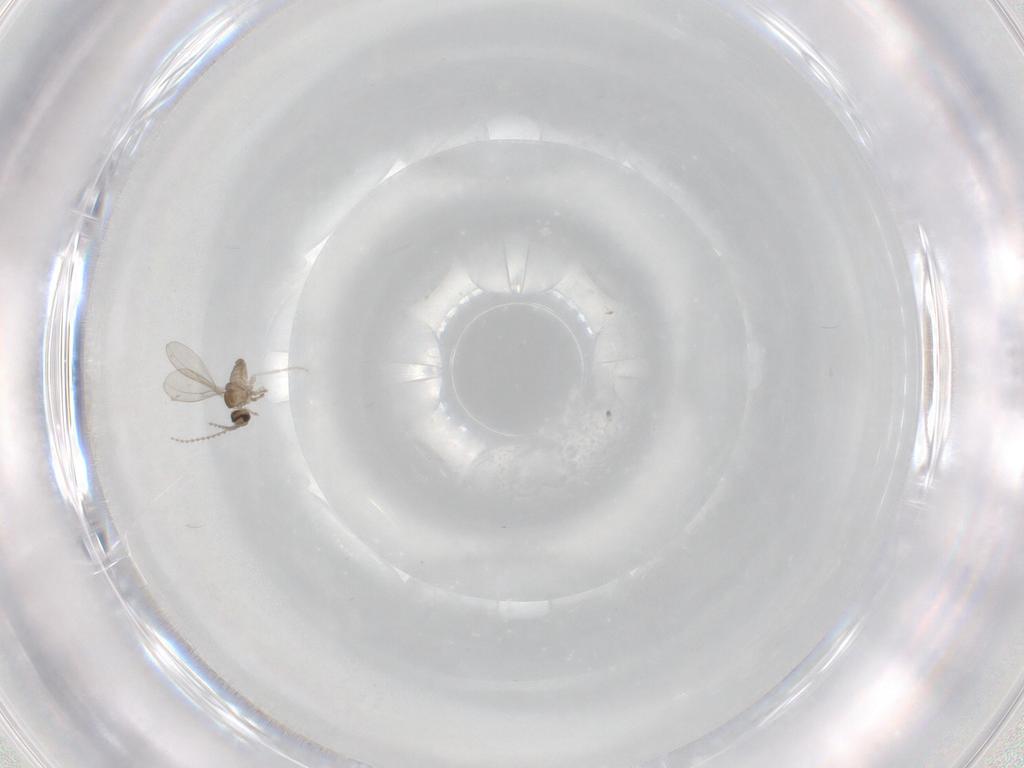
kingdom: Animalia
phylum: Arthropoda
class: Insecta
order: Diptera
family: Cecidomyiidae
